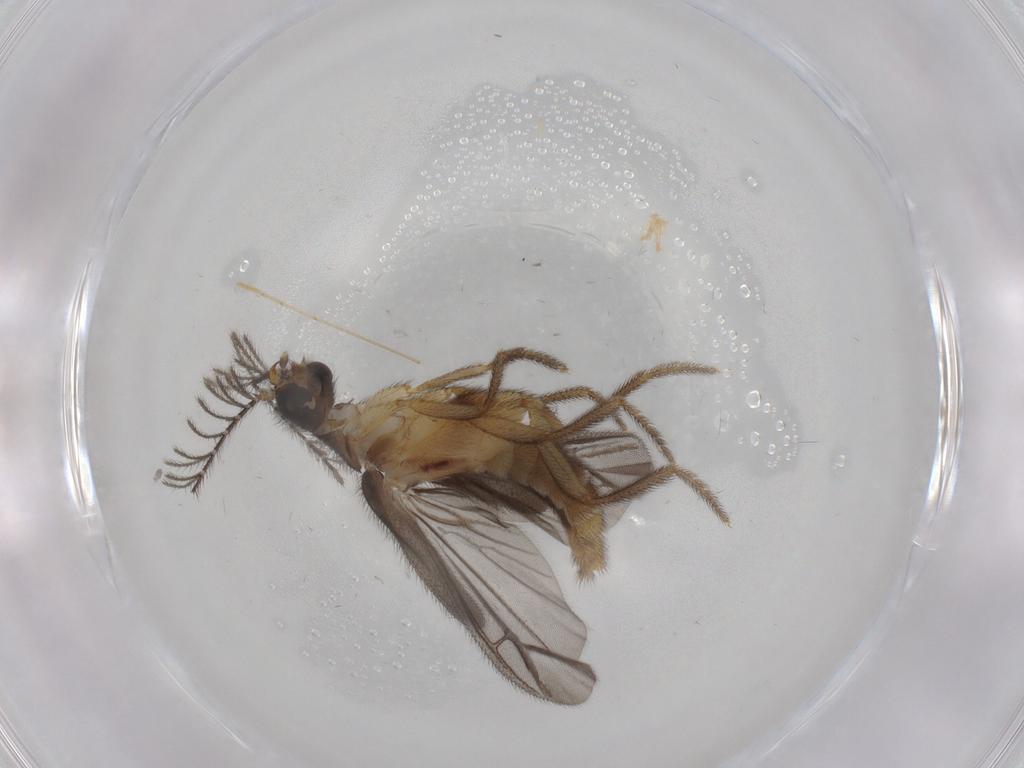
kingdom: Animalia
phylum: Arthropoda
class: Insecta
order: Coleoptera
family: Chrysomelidae
